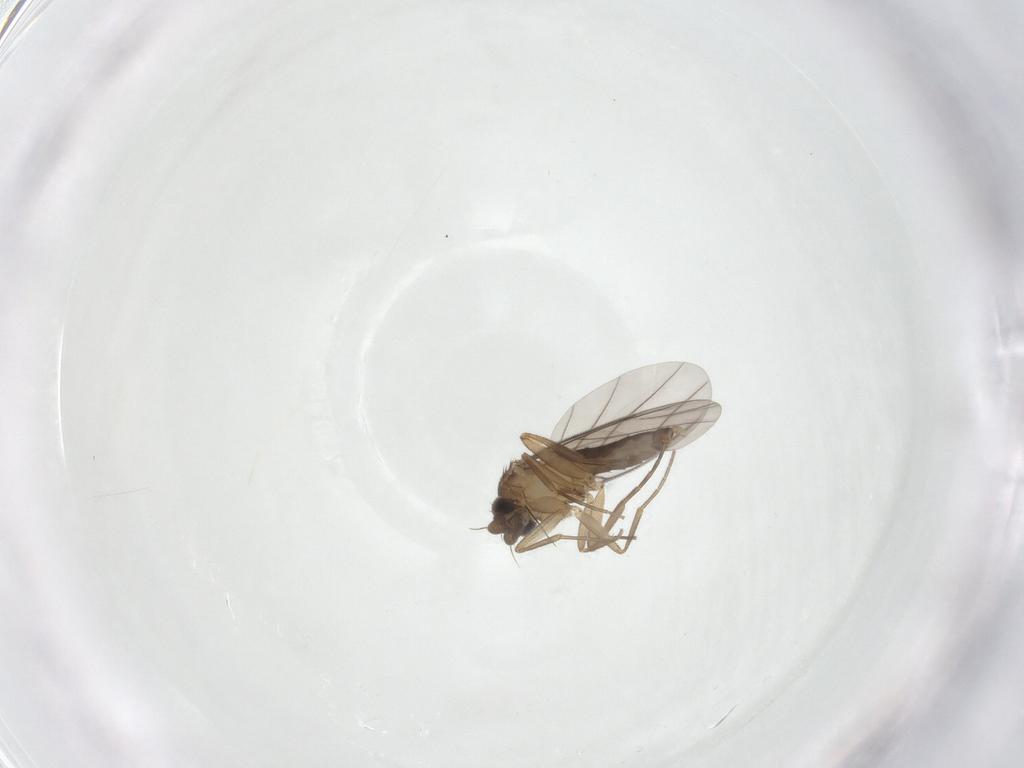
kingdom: Animalia
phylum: Arthropoda
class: Insecta
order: Diptera
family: Phoridae
